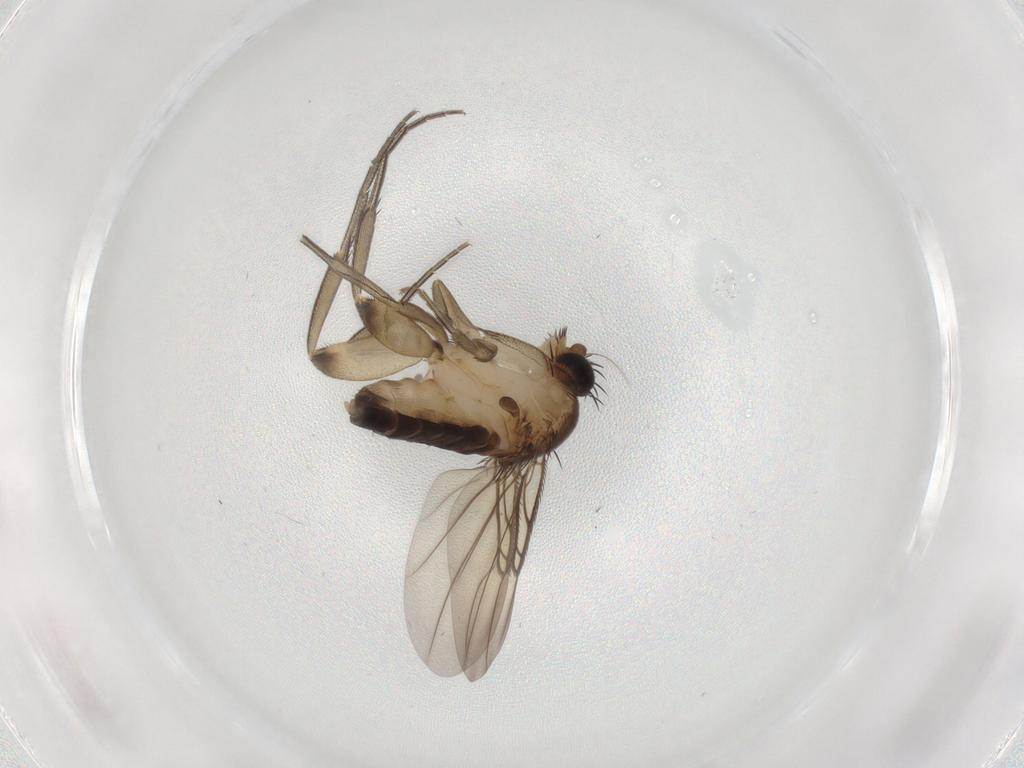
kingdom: Animalia
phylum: Arthropoda
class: Insecta
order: Diptera
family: Phoridae
